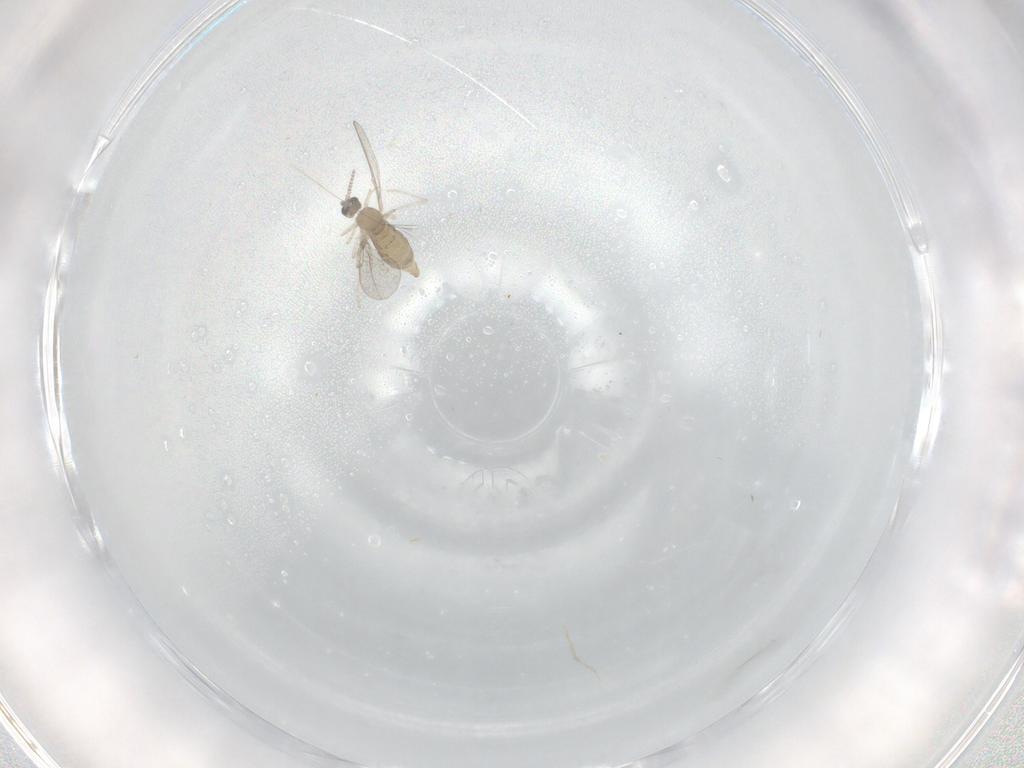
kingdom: Animalia
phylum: Arthropoda
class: Insecta
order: Diptera
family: Cecidomyiidae
